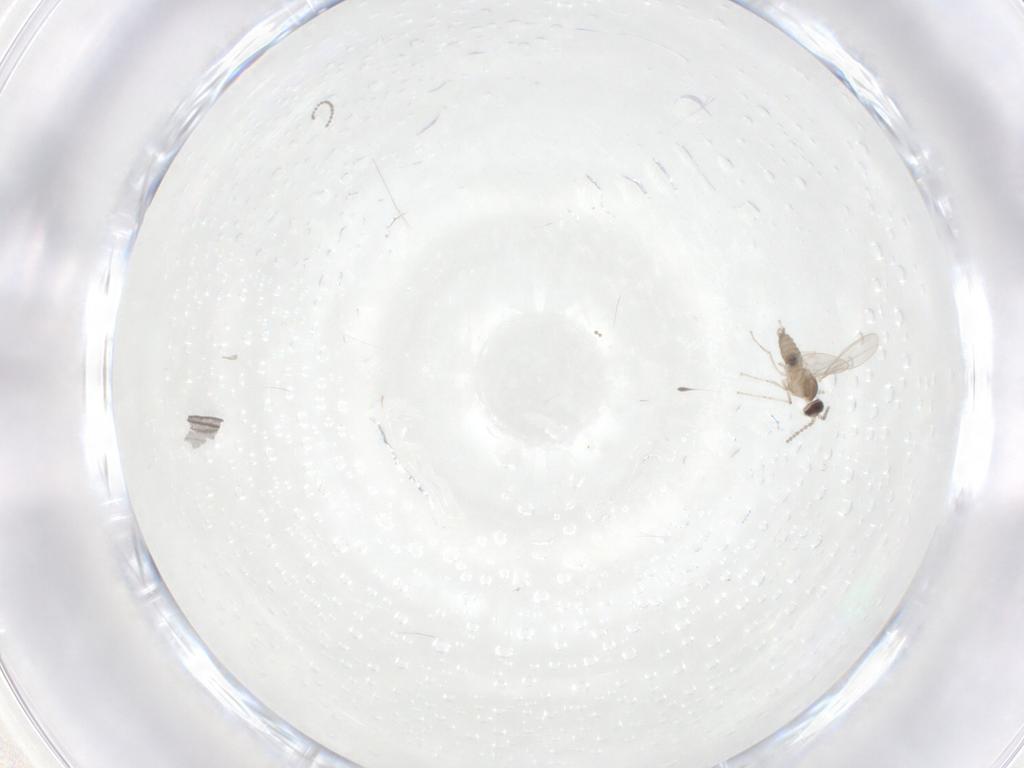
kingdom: Animalia
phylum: Arthropoda
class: Insecta
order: Diptera
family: Cecidomyiidae
